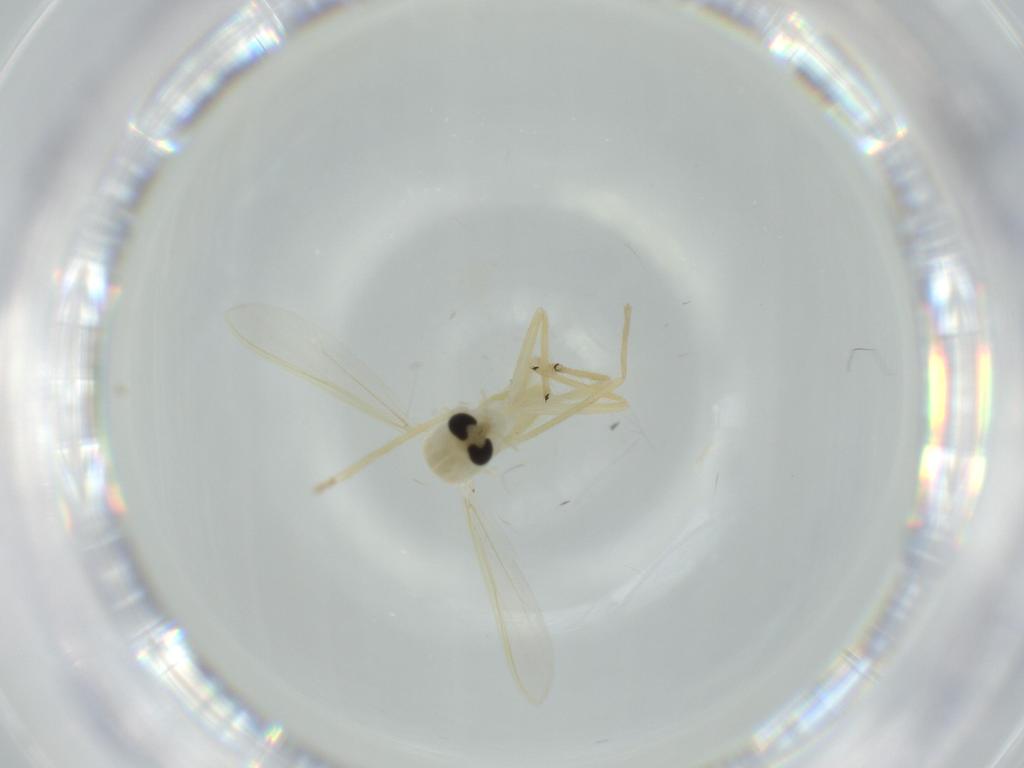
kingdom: Animalia
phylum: Arthropoda
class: Insecta
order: Diptera
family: Chironomidae
